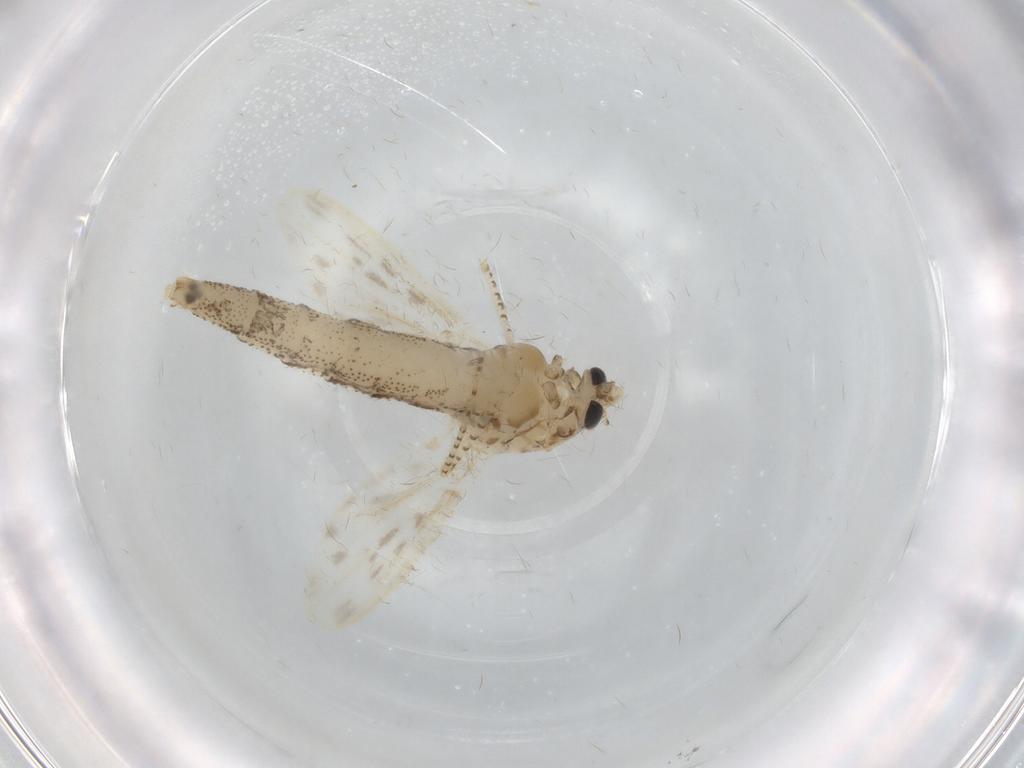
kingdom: Animalia
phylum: Arthropoda
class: Insecta
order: Diptera
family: Chaoboridae
